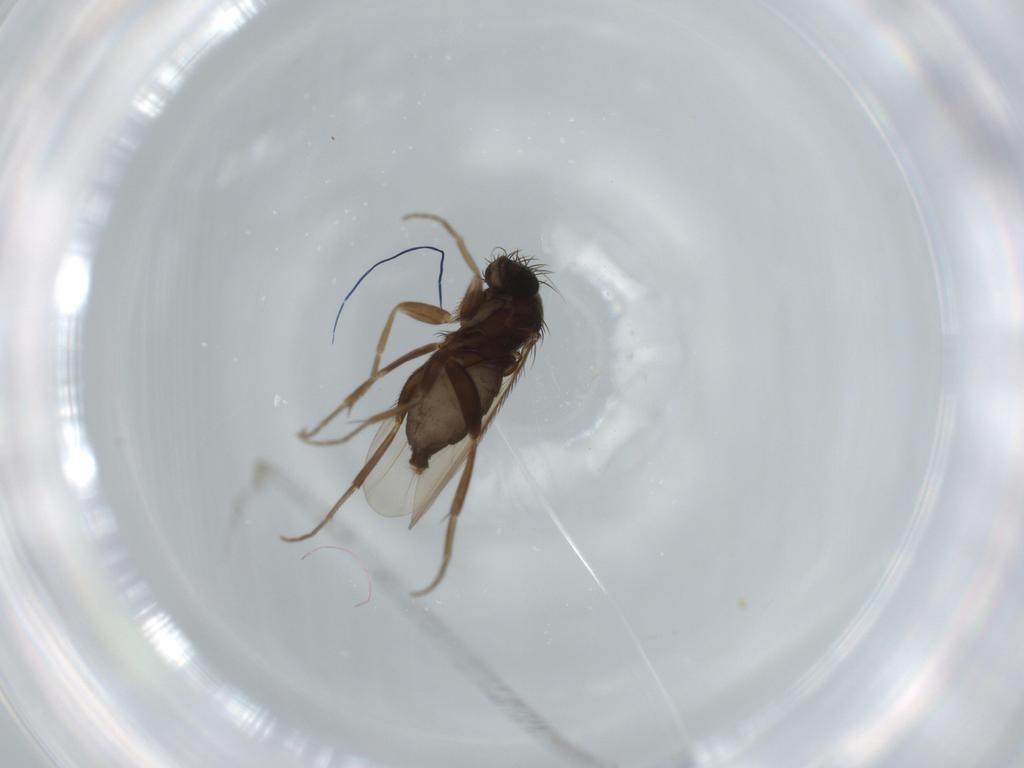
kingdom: Animalia
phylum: Arthropoda
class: Insecta
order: Diptera
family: Phoridae
